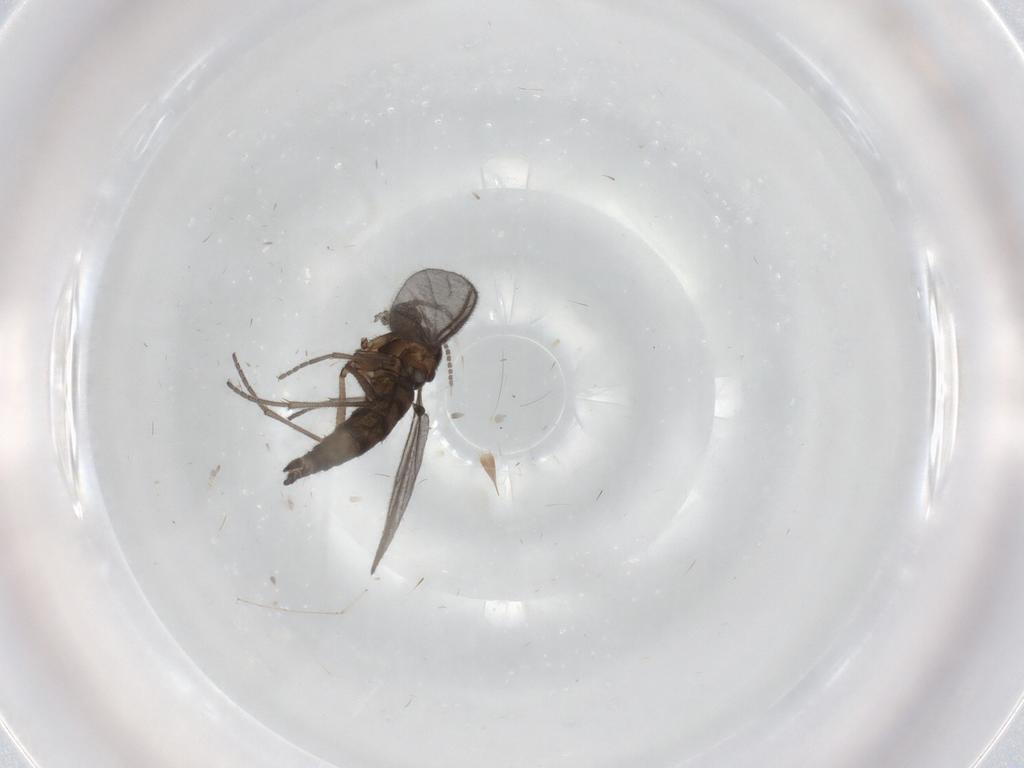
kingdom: Animalia
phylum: Arthropoda
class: Insecta
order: Diptera
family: Sciaridae
